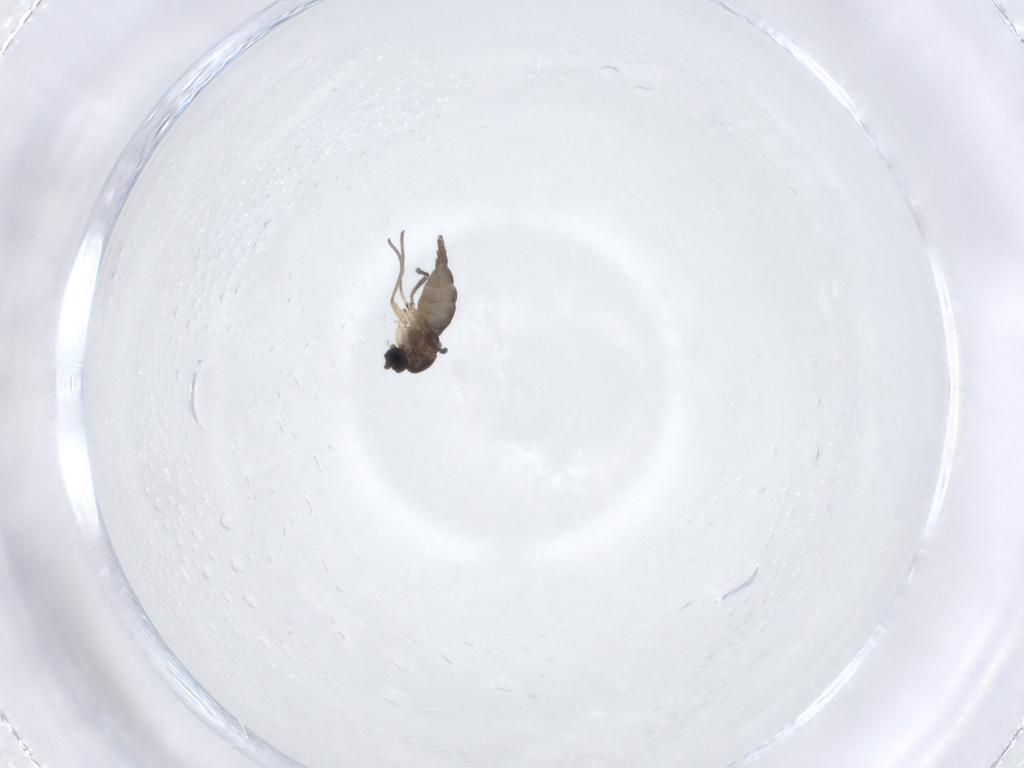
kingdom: Animalia
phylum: Arthropoda
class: Insecta
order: Diptera
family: Sciaridae
